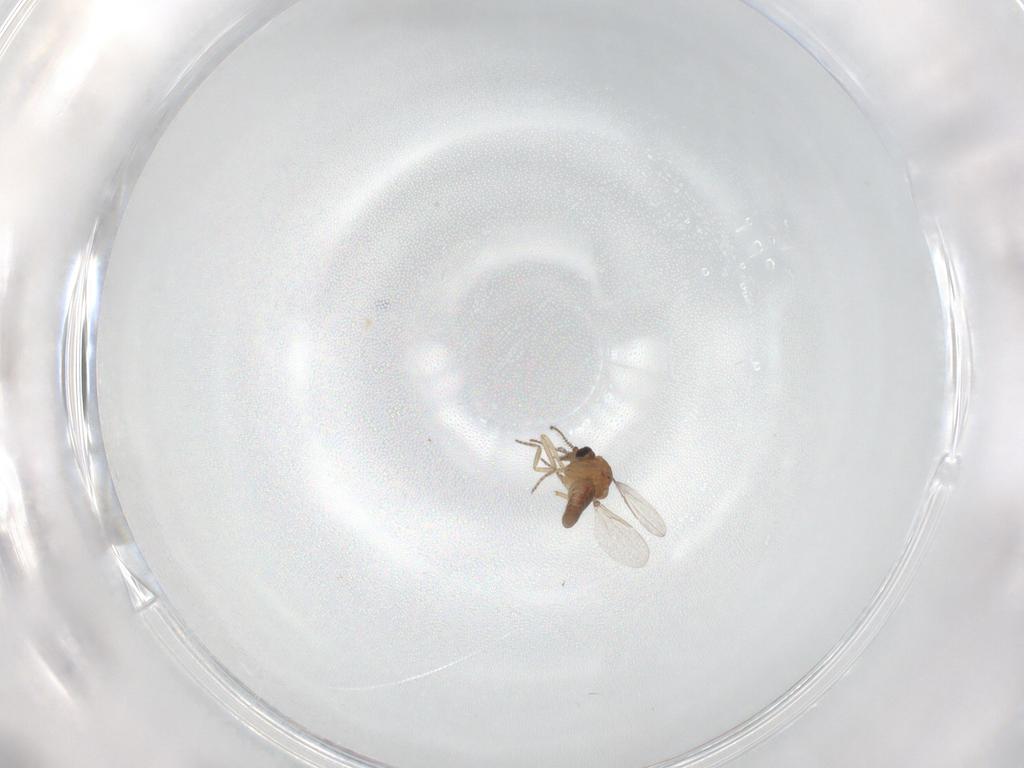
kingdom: Animalia
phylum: Arthropoda
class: Insecta
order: Diptera
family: Ceratopogonidae
